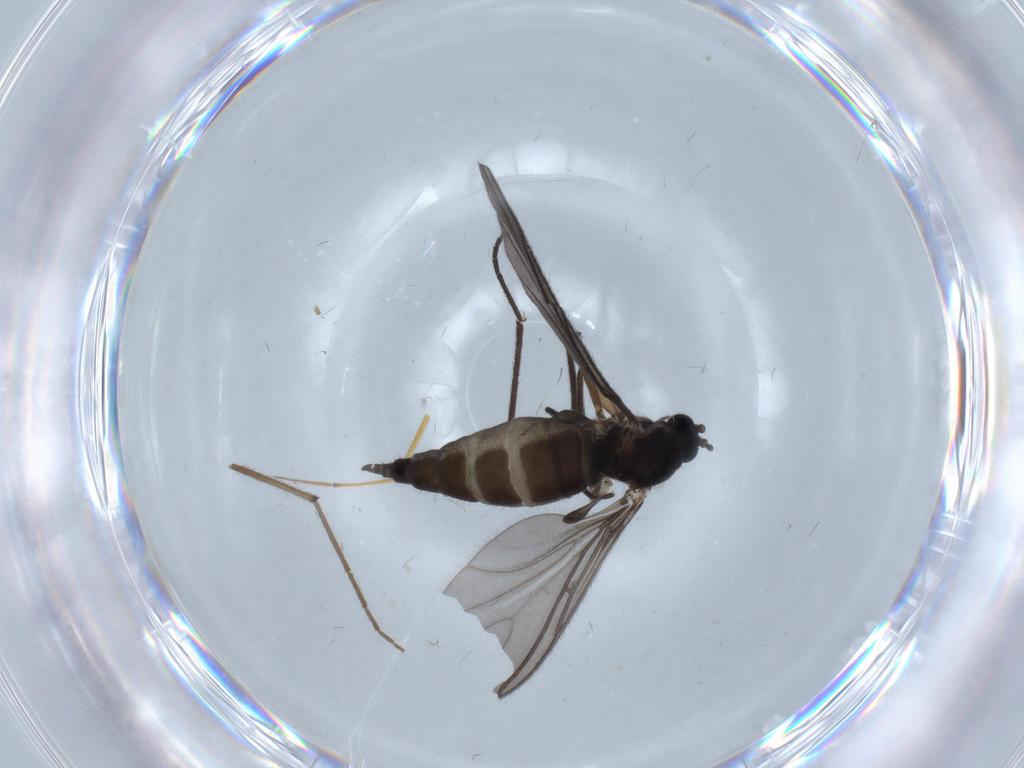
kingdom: Animalia
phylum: Arthropoda
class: Insecta
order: Diptera
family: Sciaridae
